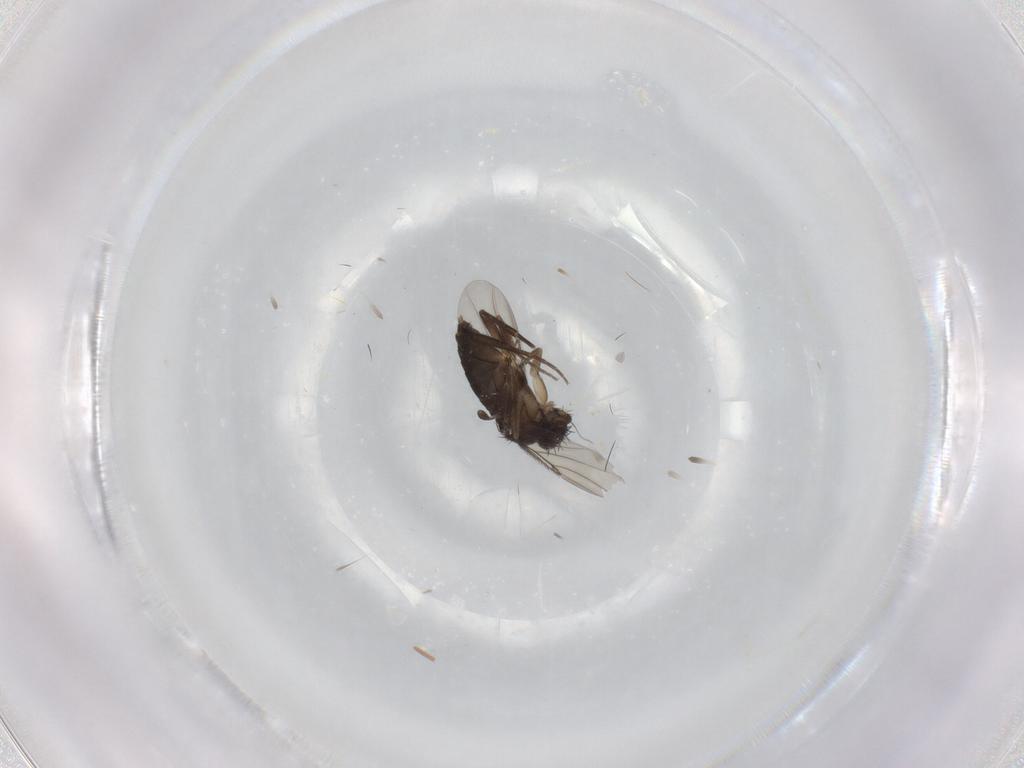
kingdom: Animalia
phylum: Arthropoda
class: Insecta
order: Diptera
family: Phoridae
